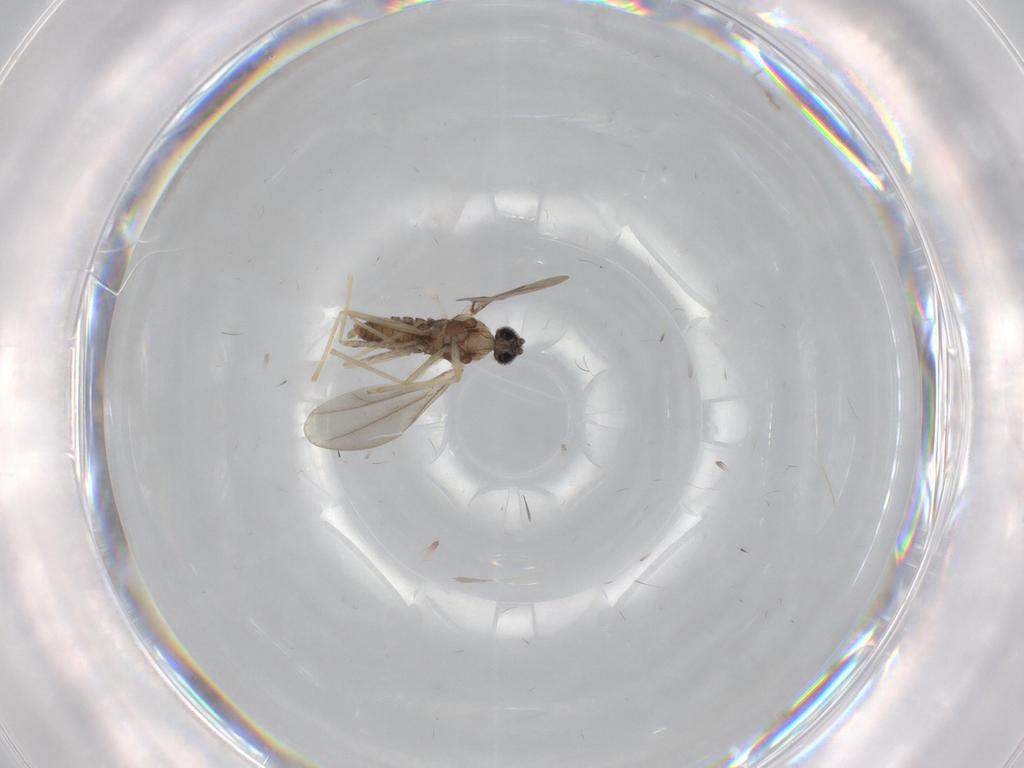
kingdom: Animalia
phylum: Arthropoda
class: Insecta
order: Diptera
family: Cecidomyiidae
